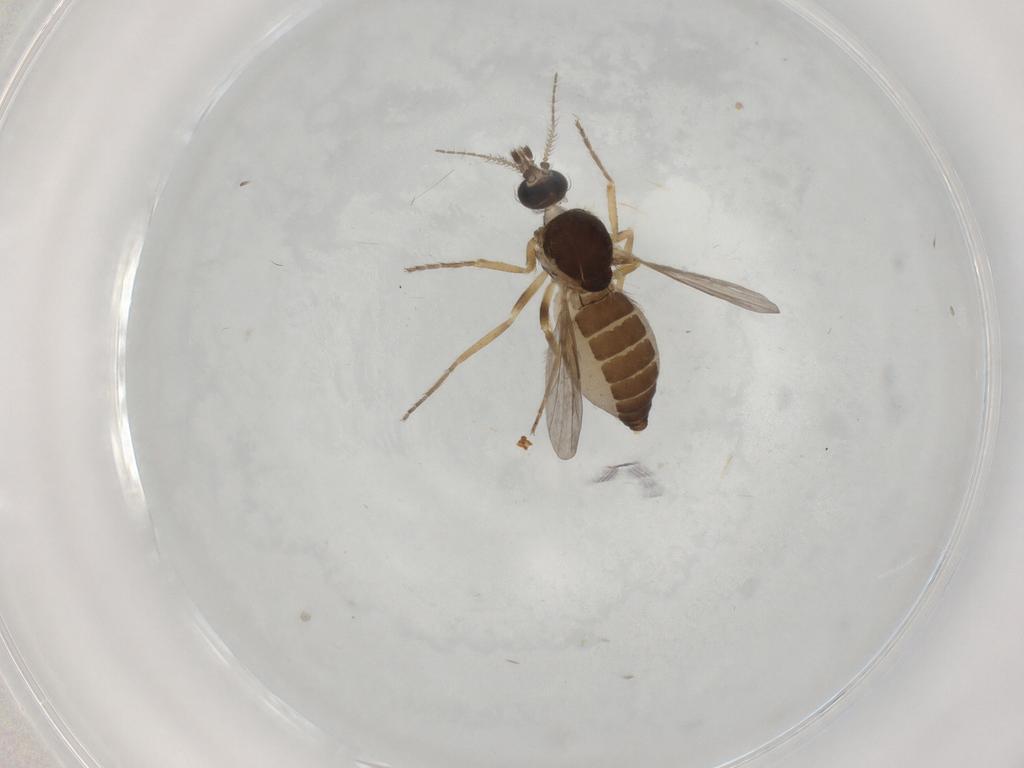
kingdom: Animalia
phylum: Arthropoda
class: Insecta
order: Diptera
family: Ceratopogonidae
